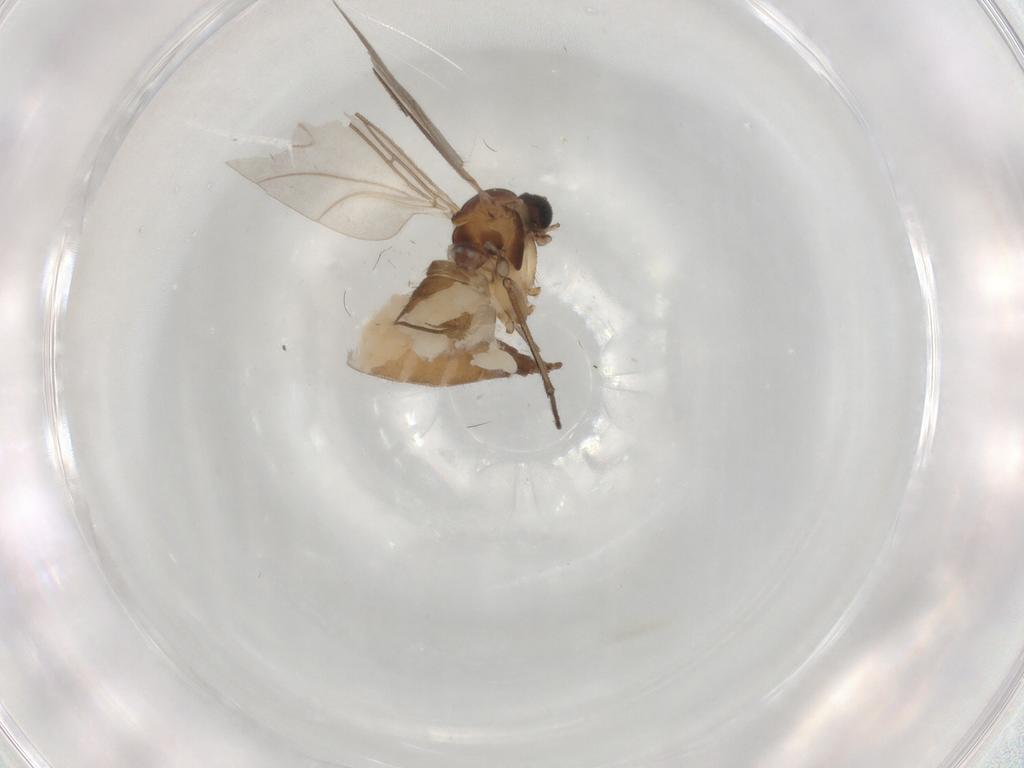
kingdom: Animalia
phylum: Arthropoda
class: Insecta
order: Diptera
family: Sciaridae
